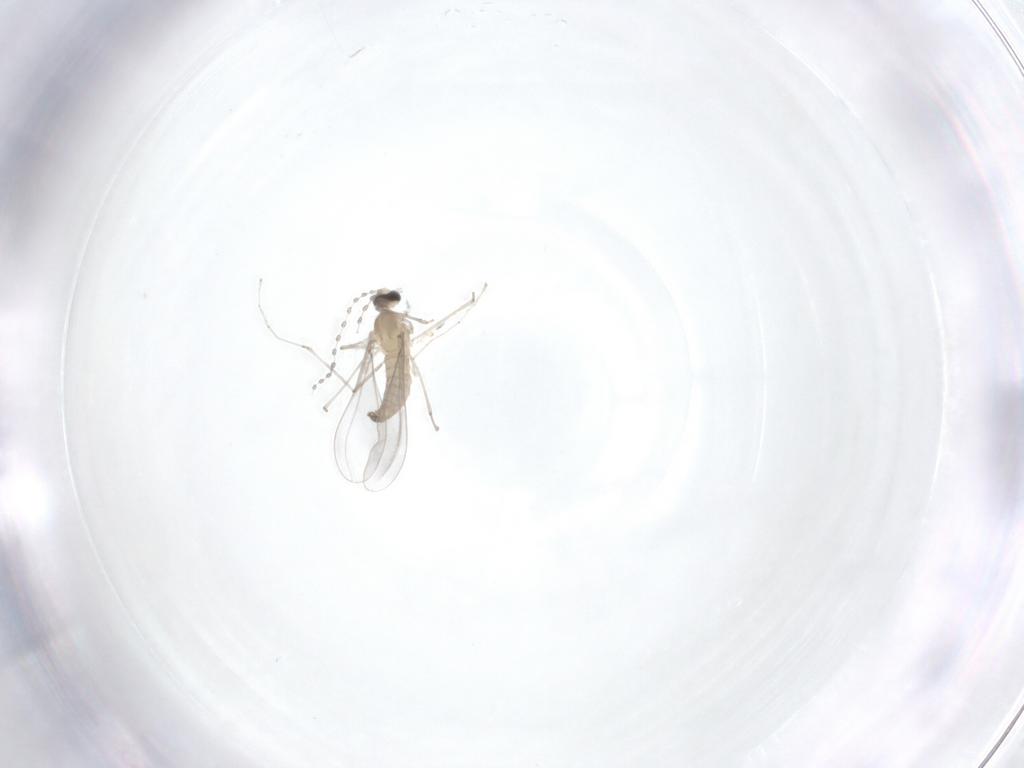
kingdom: Animalia
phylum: Arthropoda
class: Insecta
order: Diptera
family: Cecidomyiidae
